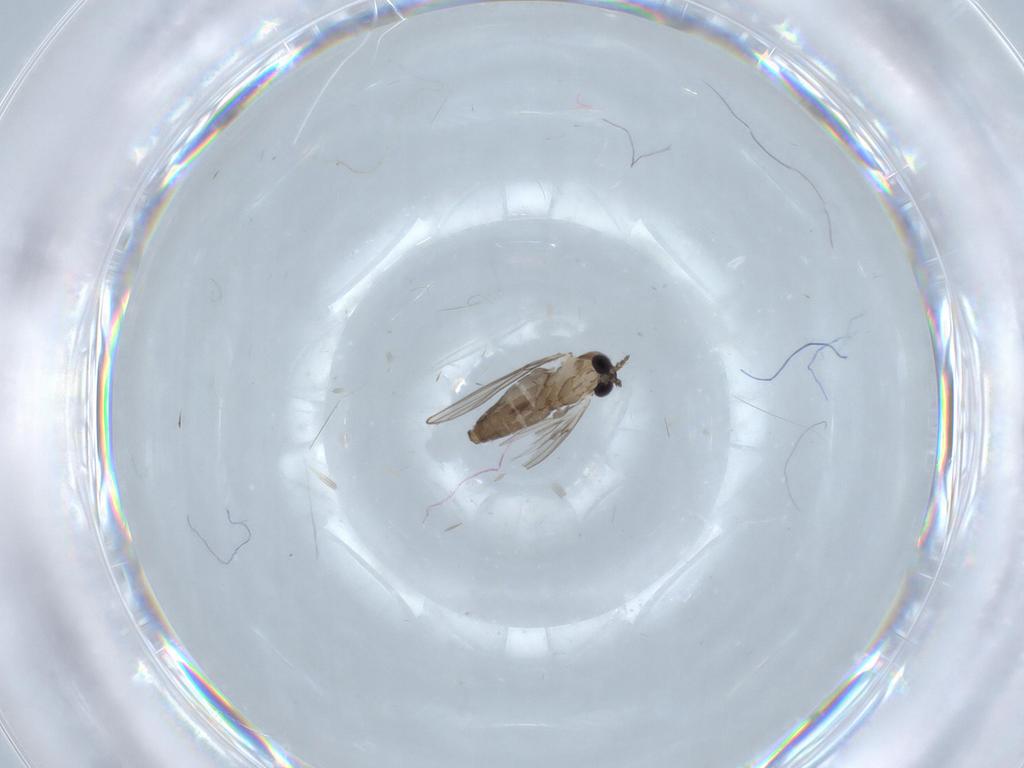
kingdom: Animalia
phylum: Arthropoda
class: Insecta
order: Diptera
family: Psychodidae
